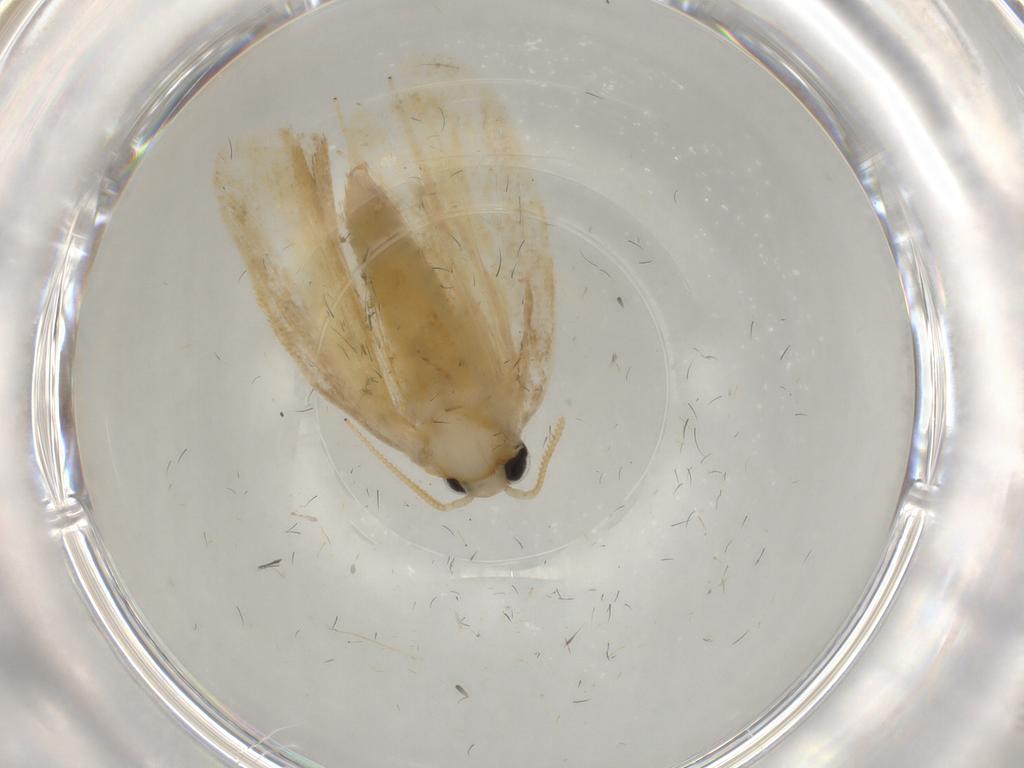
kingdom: Animalia
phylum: Arthropoda
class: Insecta
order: Lepidoptera
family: Psychidae
